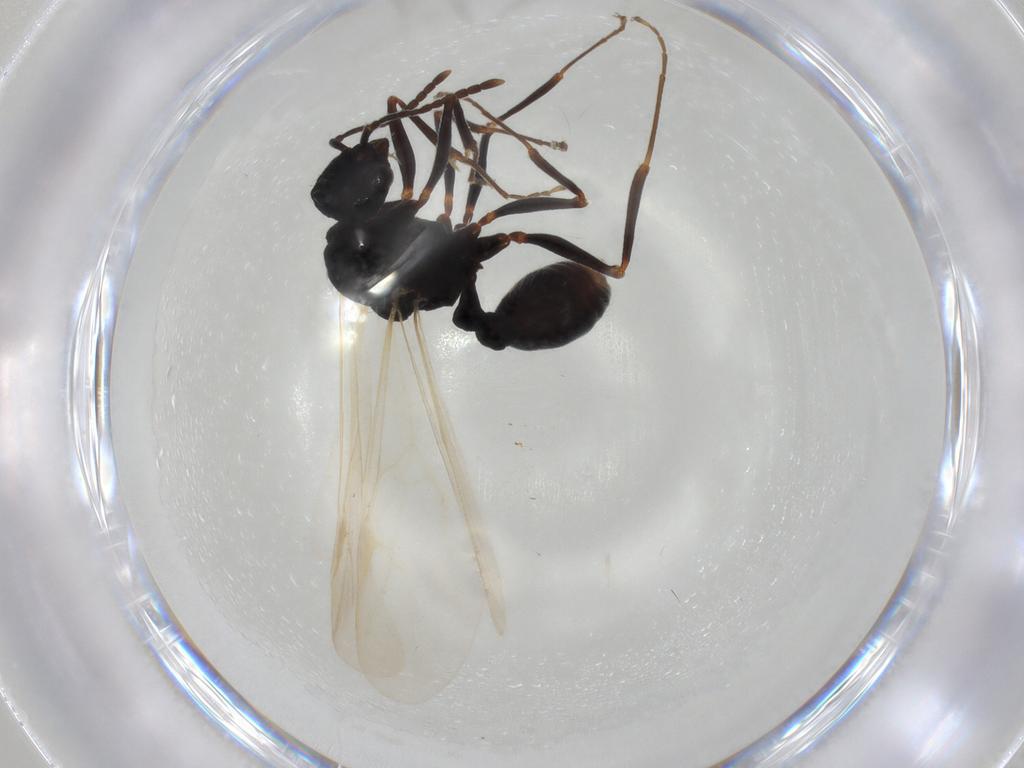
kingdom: Animalia
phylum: Arthropoda
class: Insecta
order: Hymenoptera
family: Formicidae
